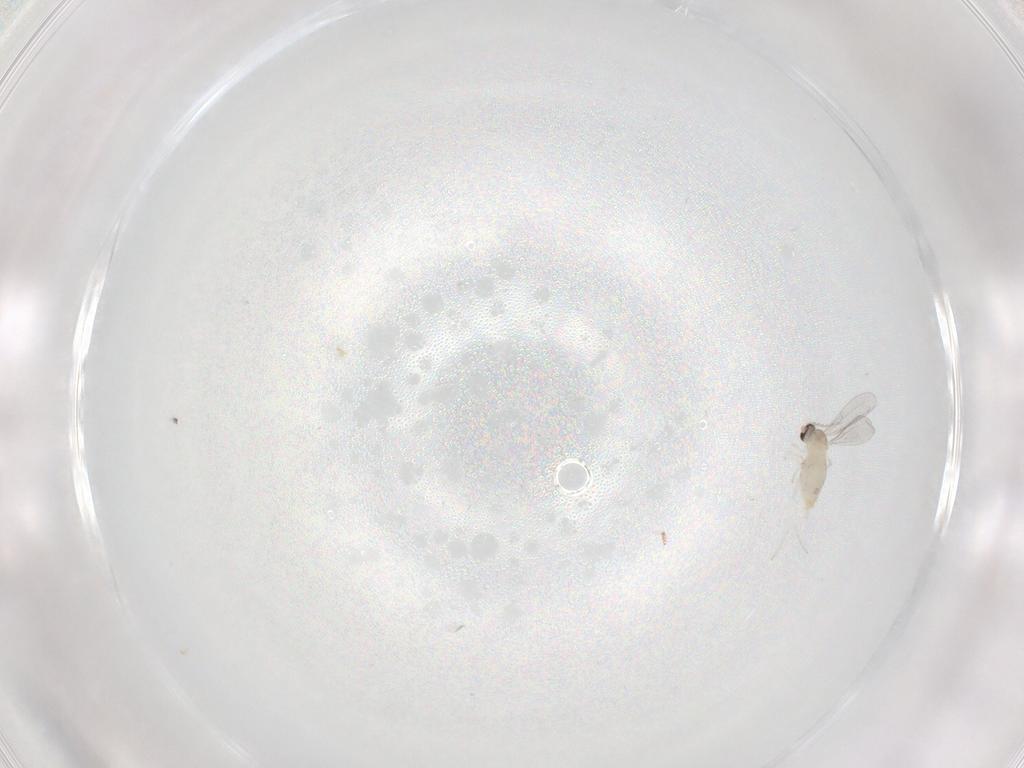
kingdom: Animalia
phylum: Arthropoda
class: Insecta
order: Diptera
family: Cecidomyiidae
